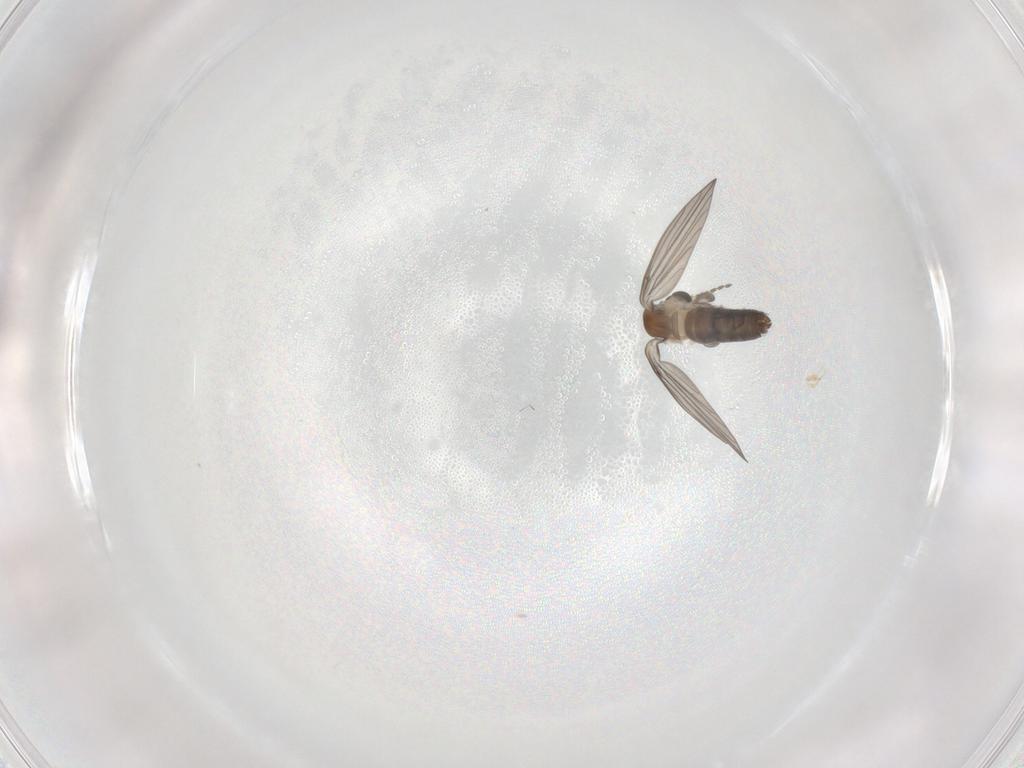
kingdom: Animalia
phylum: Arthropoda
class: Insecta
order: Diptera
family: Psychodidae
